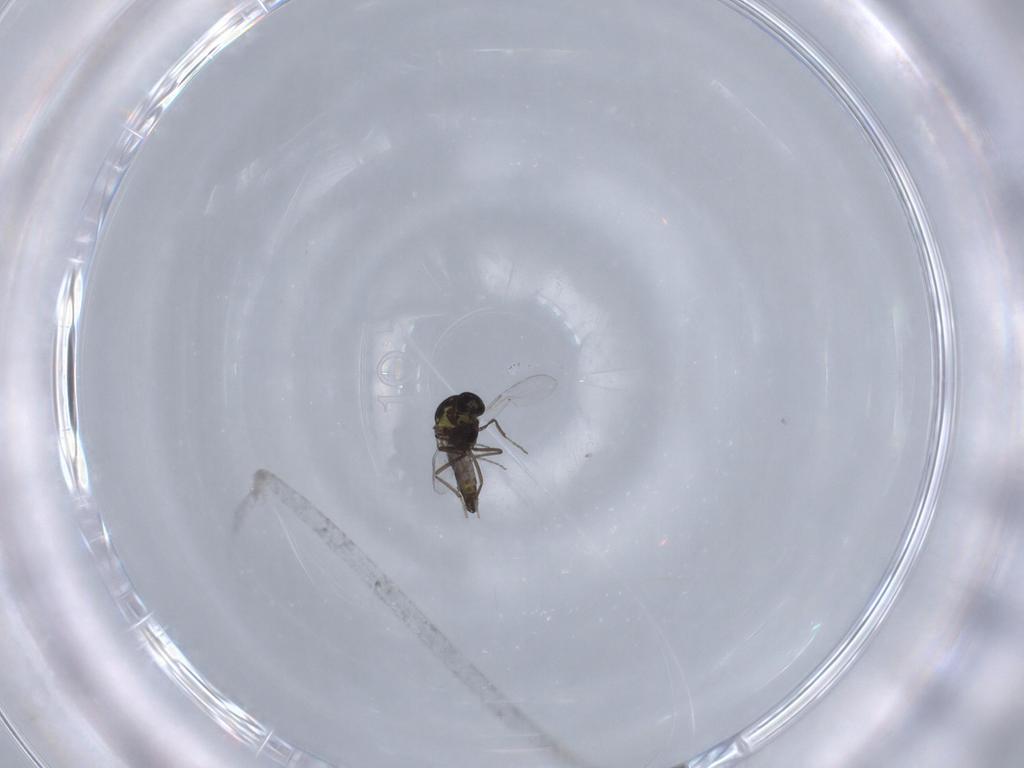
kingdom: Animalia
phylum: Arthropoda
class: Insecta
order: Diptera
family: Ceratopogonidae
